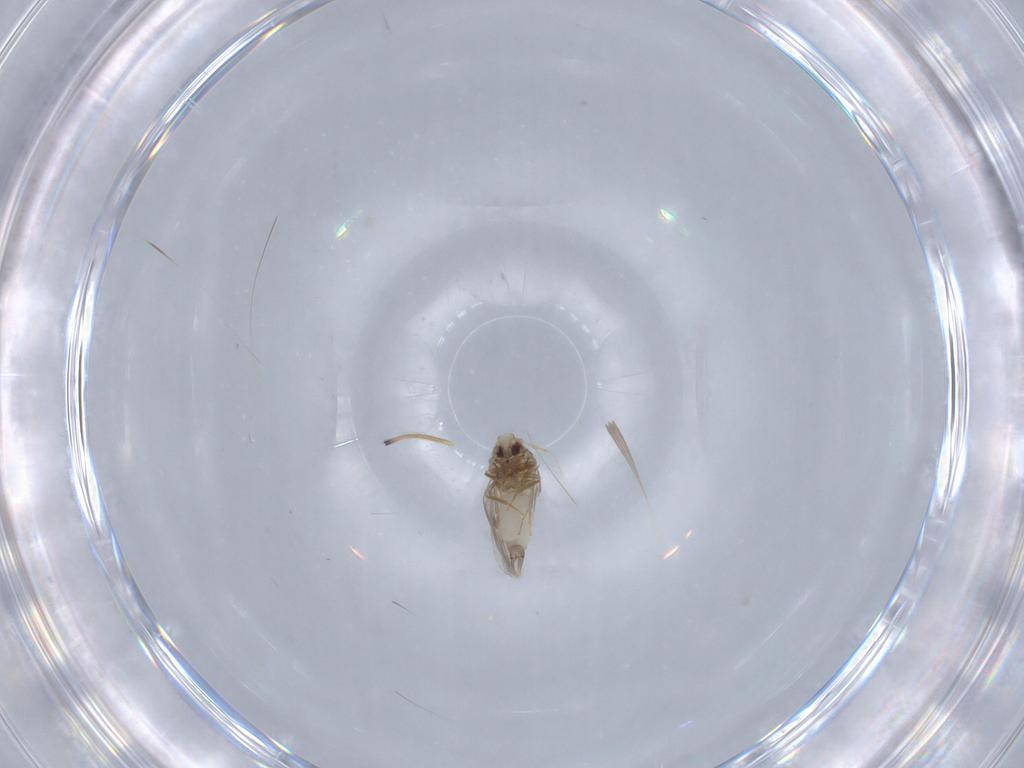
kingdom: Animalia
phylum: Arthropoda
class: Insecta
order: Hemiptera
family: Aleyrodidae
